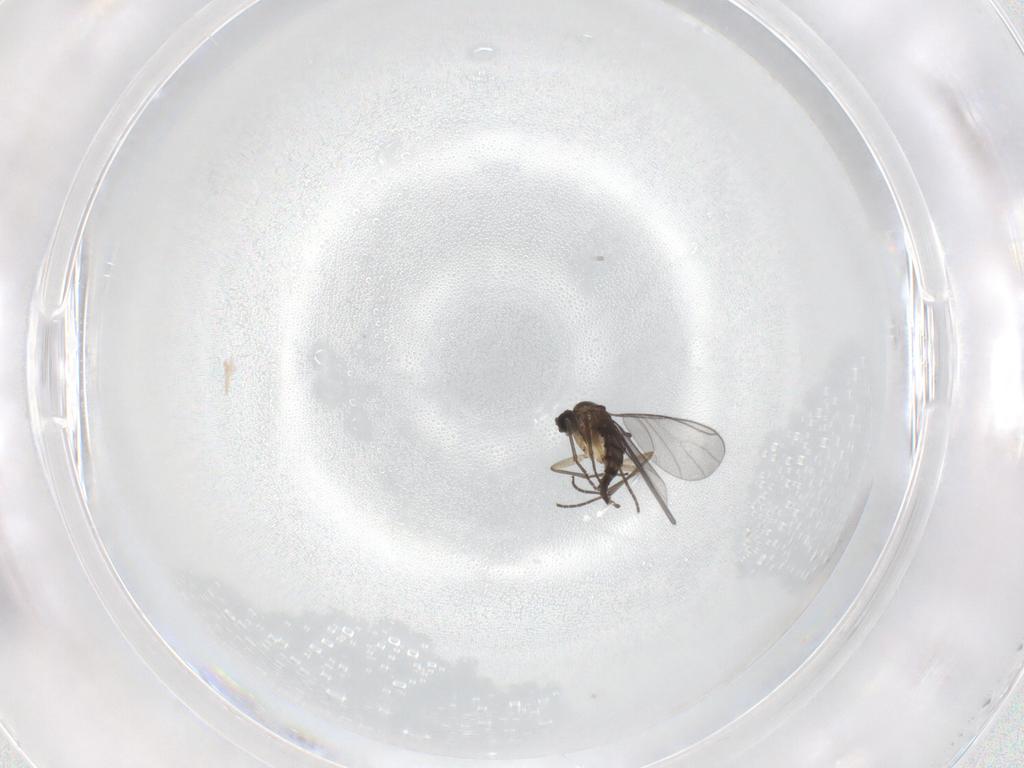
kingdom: Animalia
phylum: Arthropoda
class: Insecta
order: Diptera
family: Sciaridae
